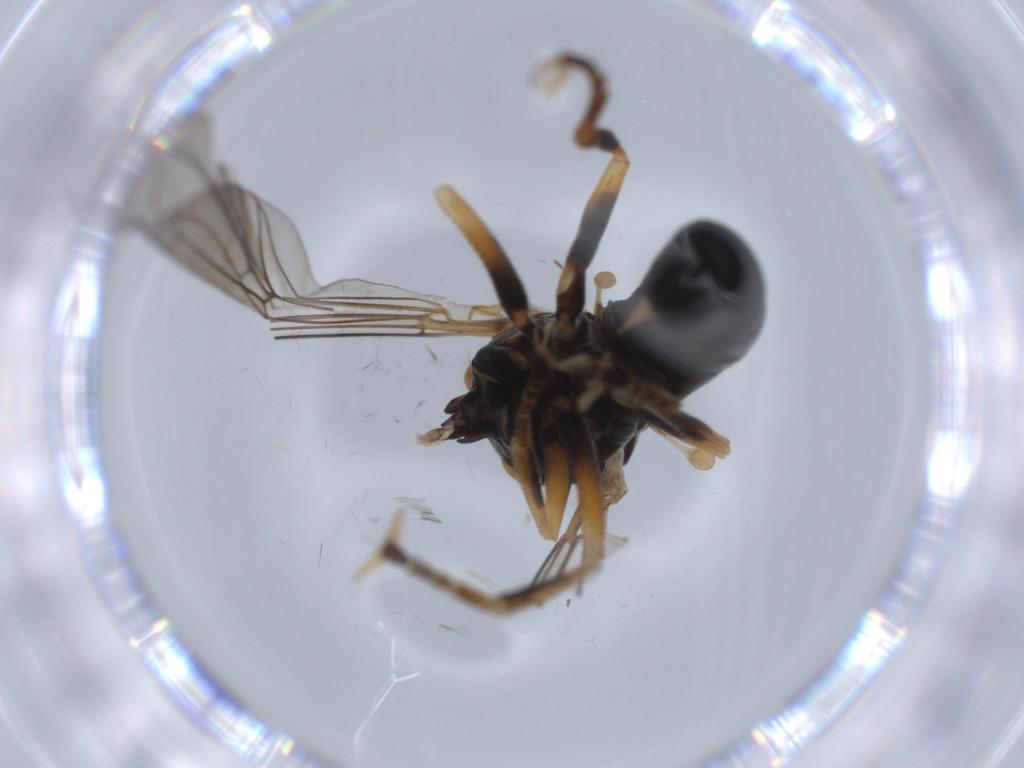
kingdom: Animalia
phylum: Arthropoda
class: Insecta
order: Diptera
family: Pipunculidae
